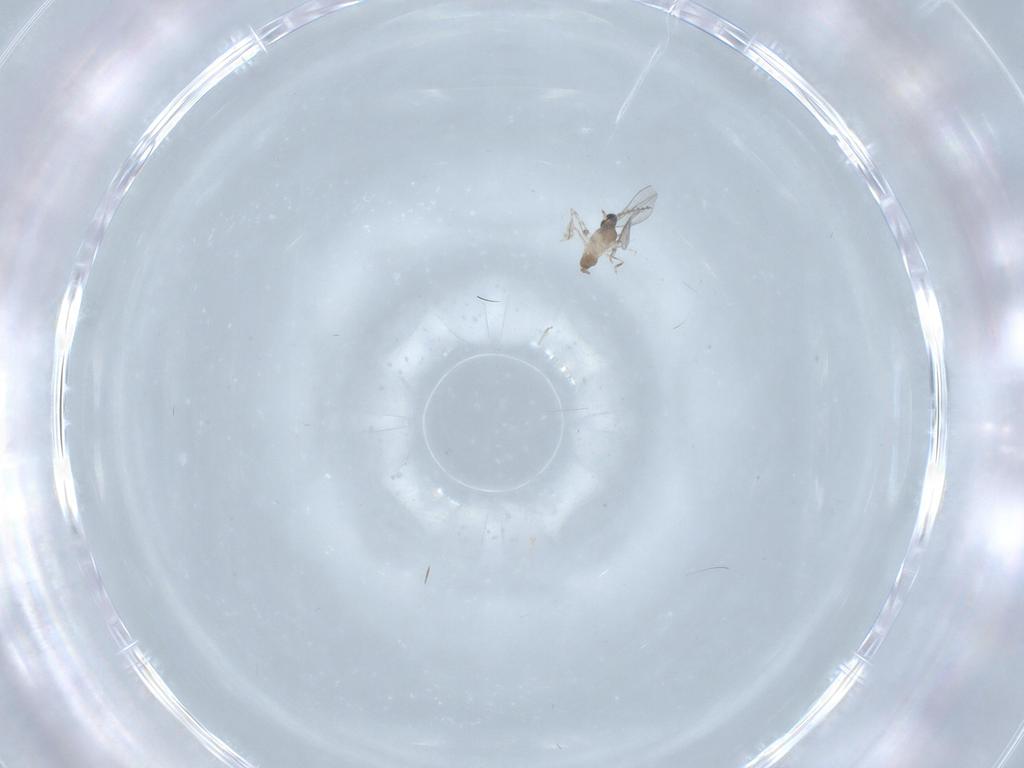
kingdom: Animalia
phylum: Arthropoda
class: Insecta
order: Diptera
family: Cecidomyiidae
